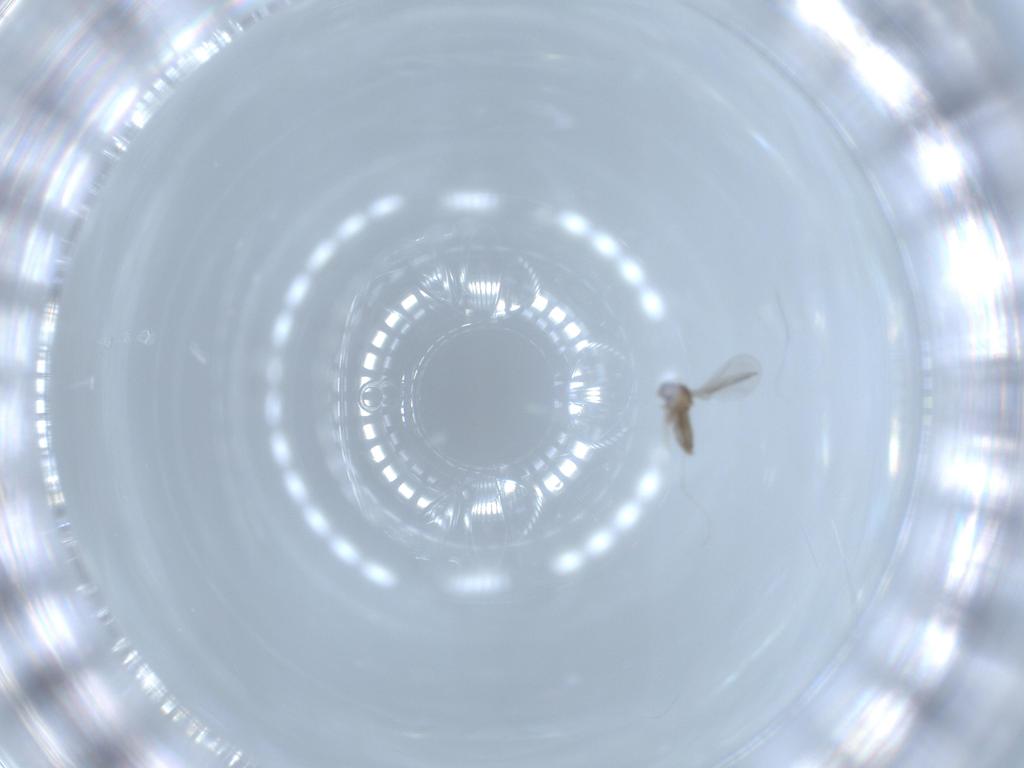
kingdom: Animalia
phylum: Arthropoda
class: Insecta
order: Diptera
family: Cecidomyiidae
